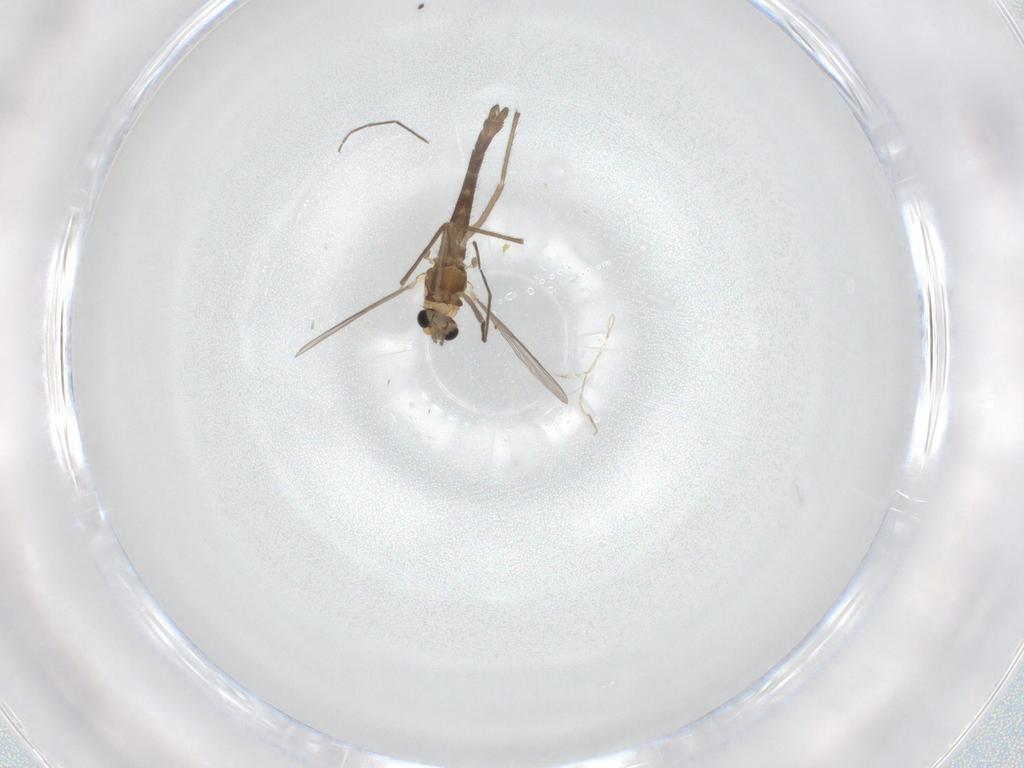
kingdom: Animalia
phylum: Arthropoda
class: Insecta
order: Diptera
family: Chironomidae
